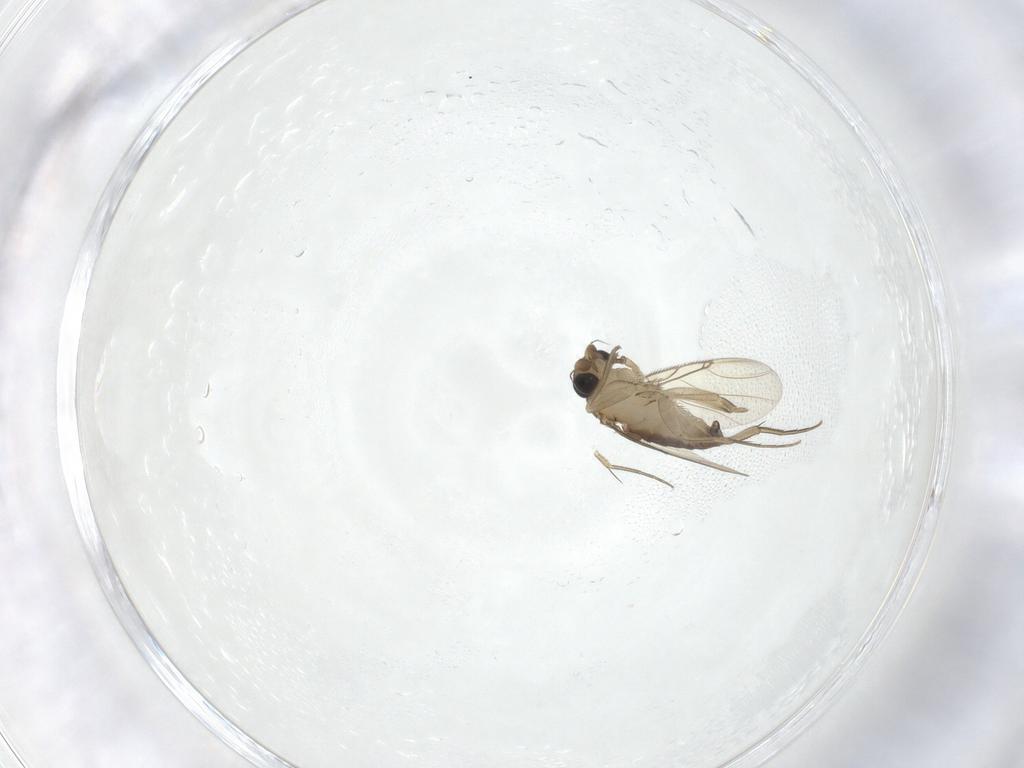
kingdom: Animalia
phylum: Arthropoda
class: Insecta
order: Diptera
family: Phoridae
